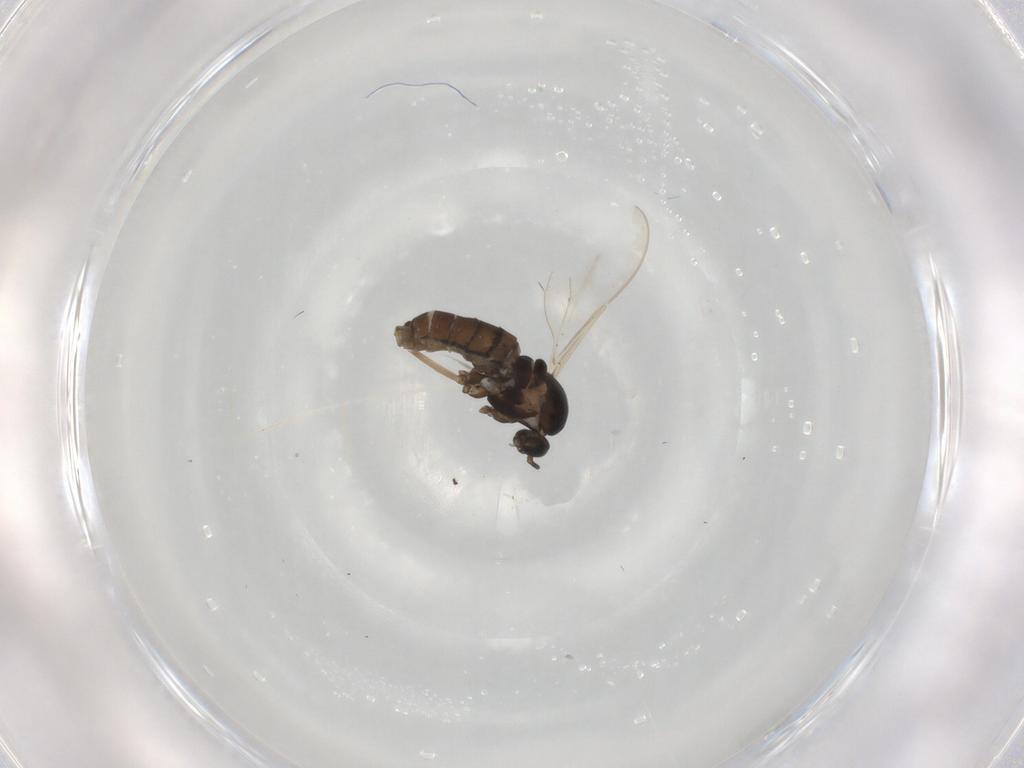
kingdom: Animalia
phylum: Arthropoda
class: Insecta
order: Diptera
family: Cecidomyiidae
